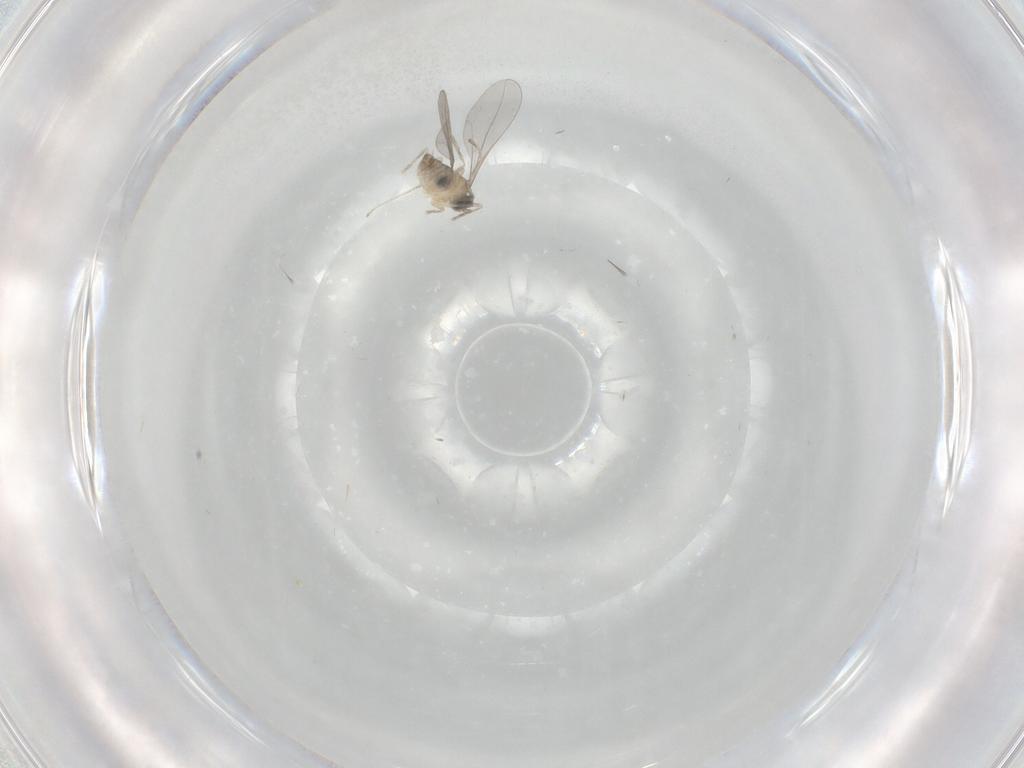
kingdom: Animalia
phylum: Arthropoda
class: Insecta
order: Diptera
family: Cecidomyiidae
